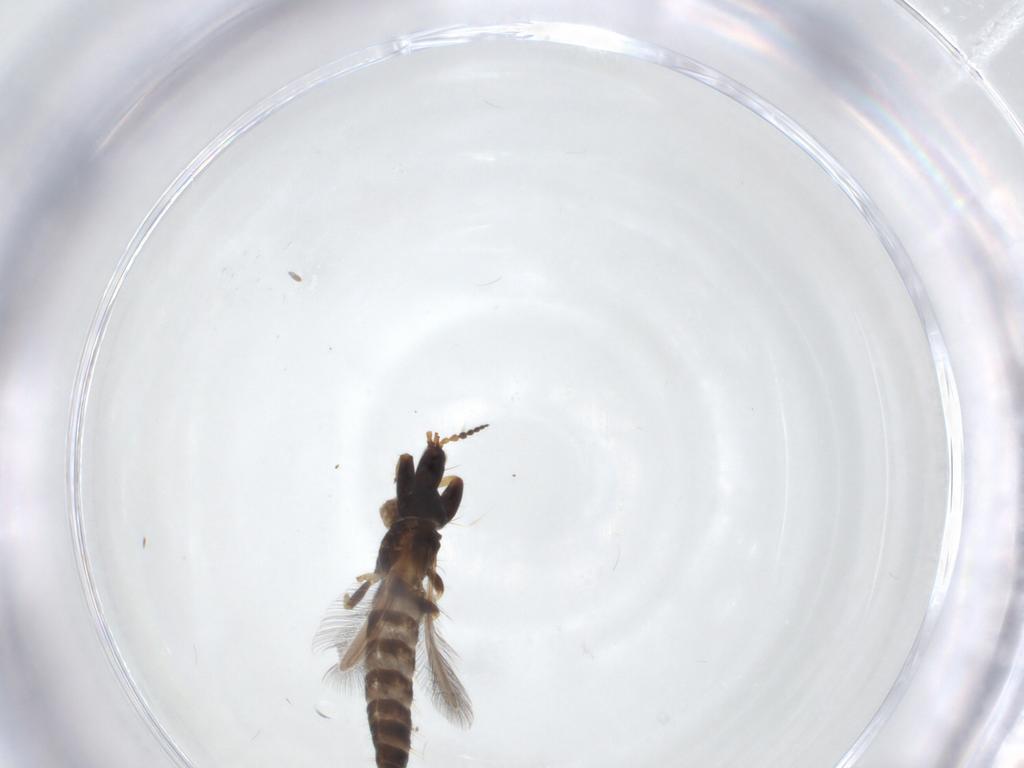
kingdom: Animalia
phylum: Arthropoda
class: Insecta
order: Thysanoptera
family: Phlaeothripidae
